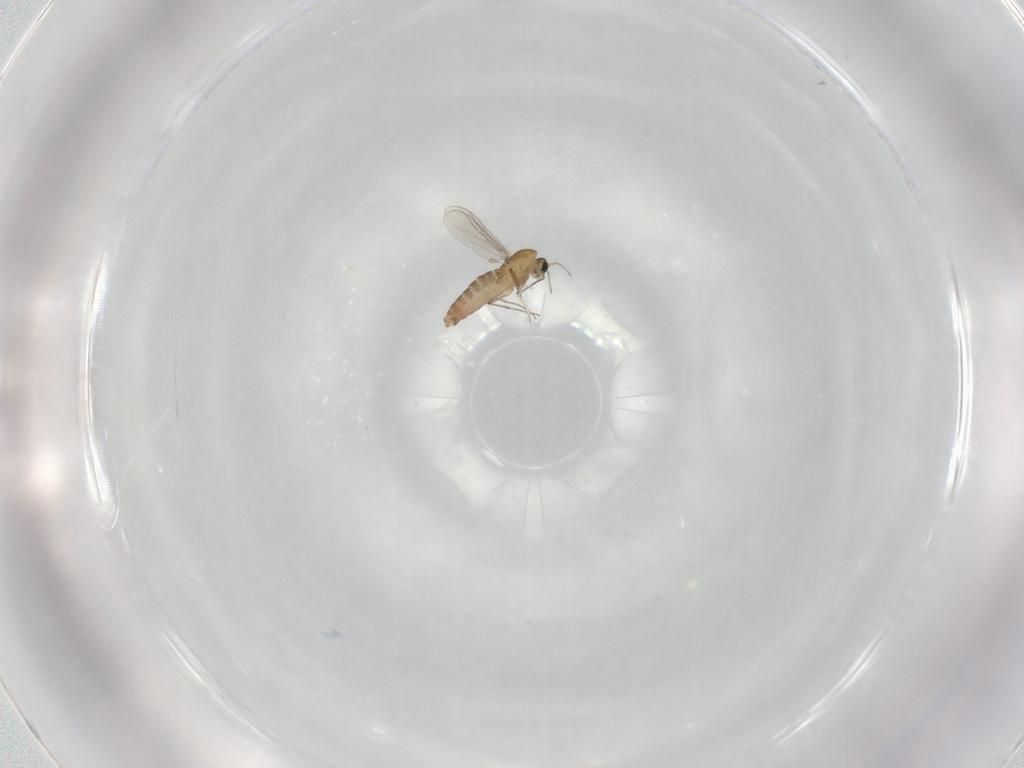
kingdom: Animalia
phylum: Arthropoda
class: Insecta
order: Diptera
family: Chironomidae
